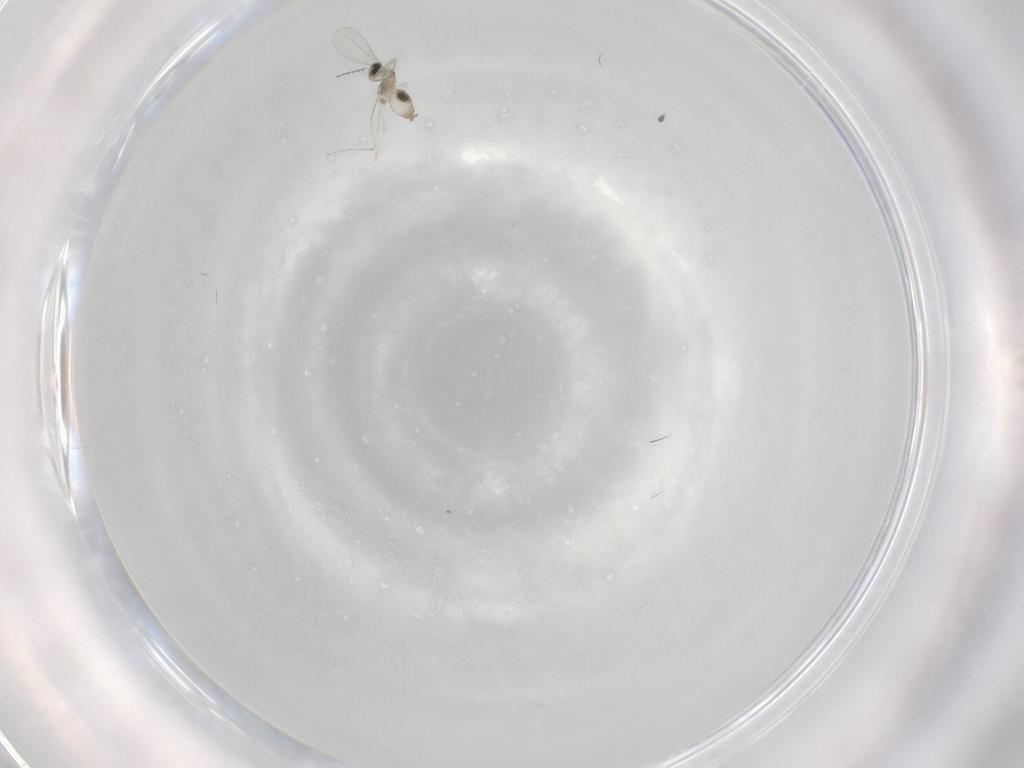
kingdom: Animalia
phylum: Arthropoda
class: Insecta
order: Diptera
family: Cecidomyiidae
